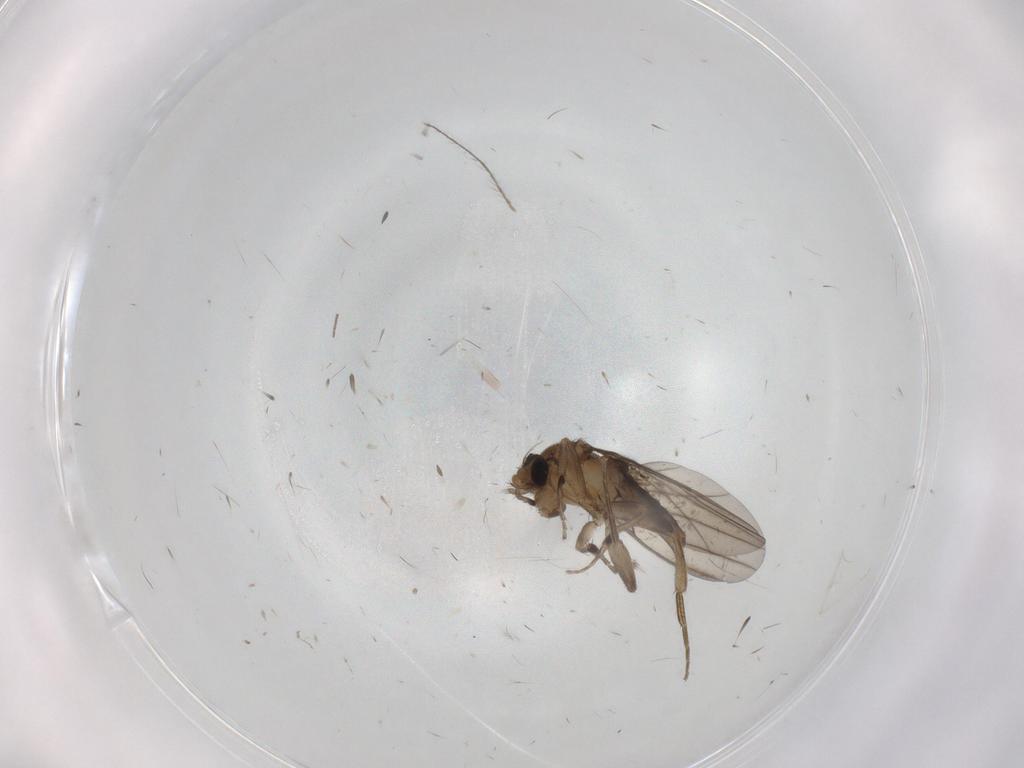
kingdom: Animalia
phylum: Arthropoda
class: Insecta
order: Diptera
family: Cecidomyiidae
